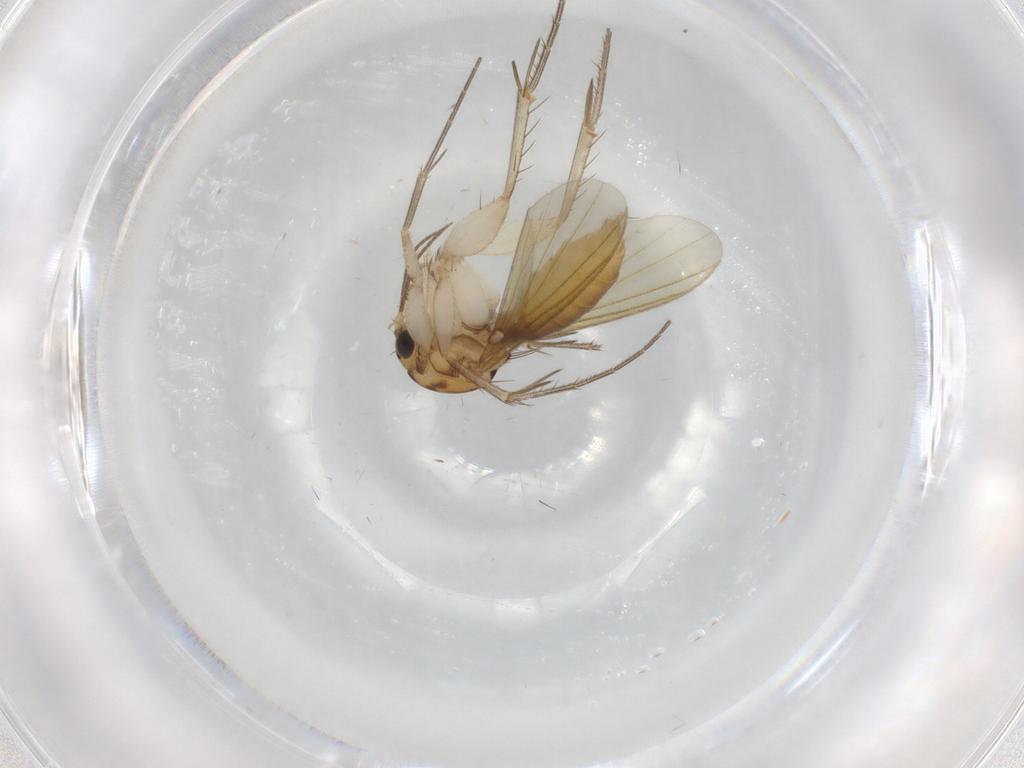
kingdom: Animalia
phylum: Arthropoda
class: Insecta
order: Diptera
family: Mycetophilidae
